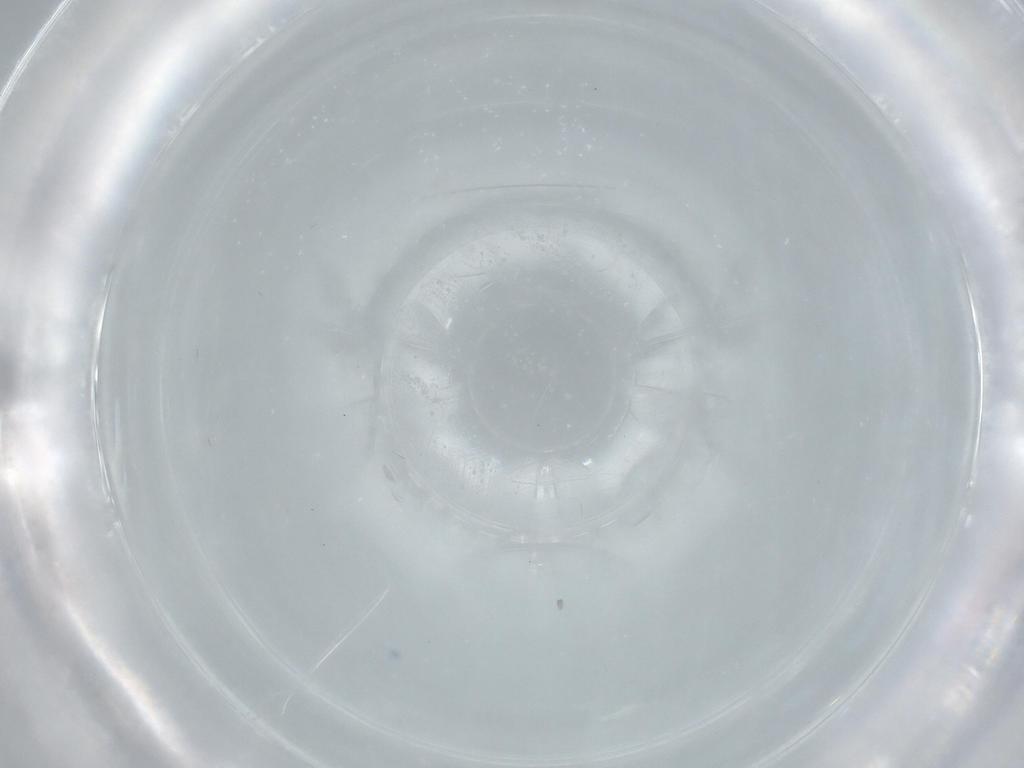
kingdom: Animalia
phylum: Arthropoda
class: Insecta
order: Diptera
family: Cecidomyiidae
